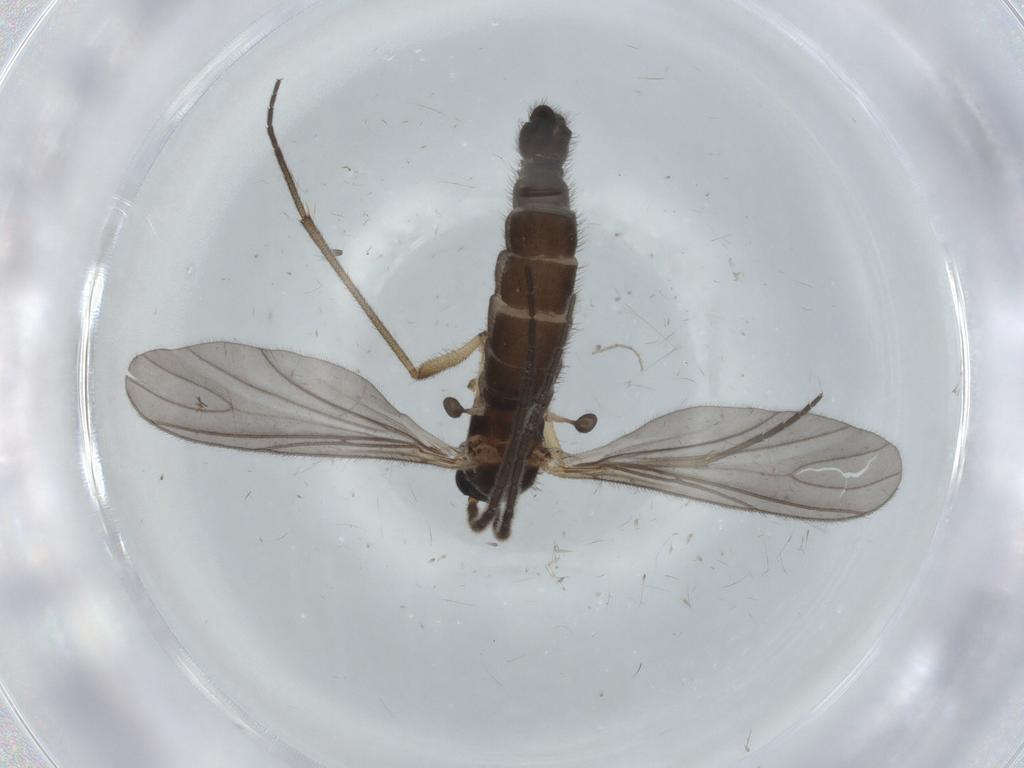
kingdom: Animalia
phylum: Arthropoda
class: Insecta
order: Diptera
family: Sciaridae
